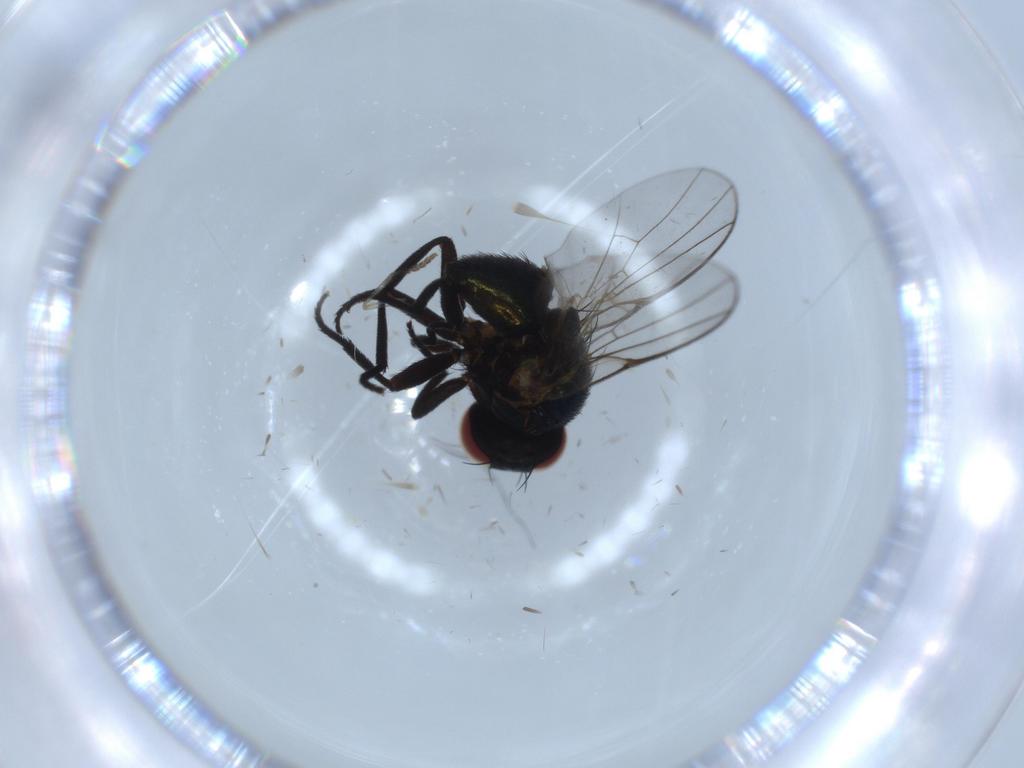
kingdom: Animalia
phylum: Arthropoda
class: Insecta
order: Diptera
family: Agromyzidae
